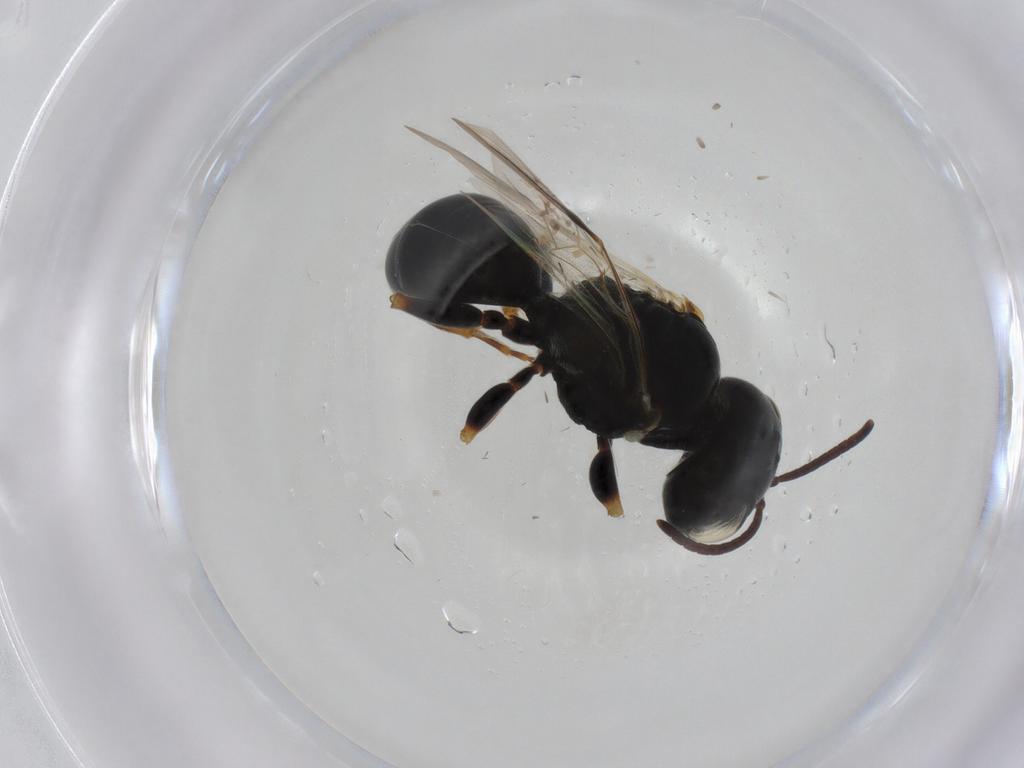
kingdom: Animalia
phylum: Arthropoda
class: Insecta
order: Hymenoptera
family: Pemphredonidae
